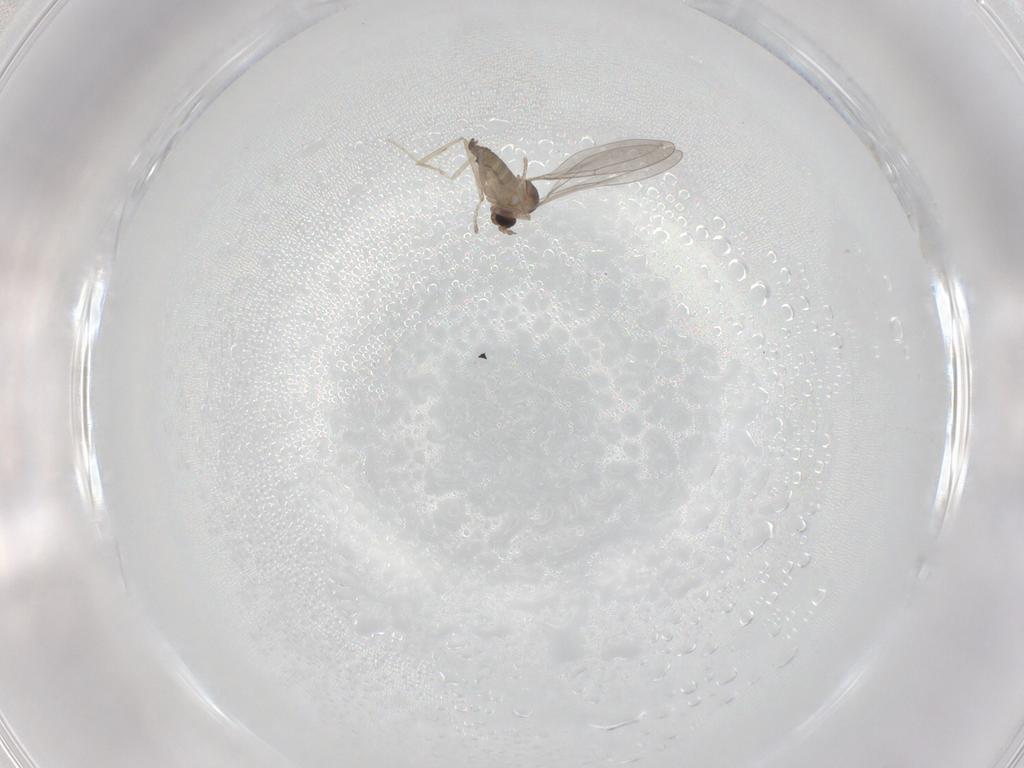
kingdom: Animalia
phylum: Arthropoda
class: Insecta
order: Diptera
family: Cecidomyiidae
